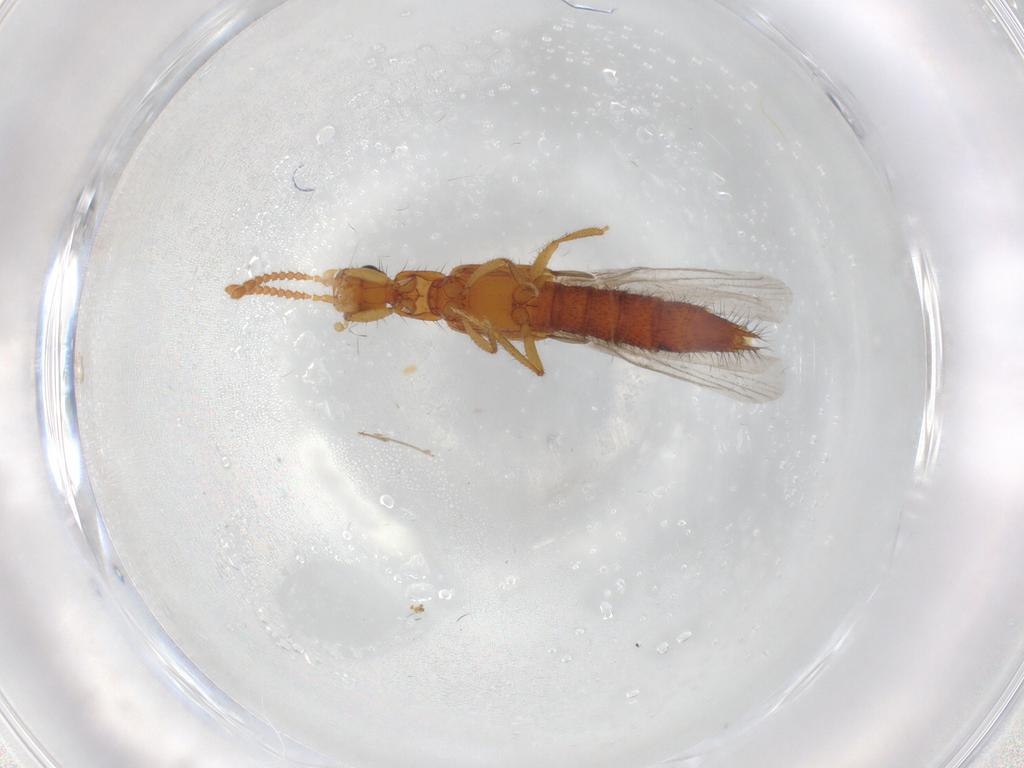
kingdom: Animalia
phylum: Arthropoda
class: Insecta
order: Coleoptera
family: Staphylinidae
